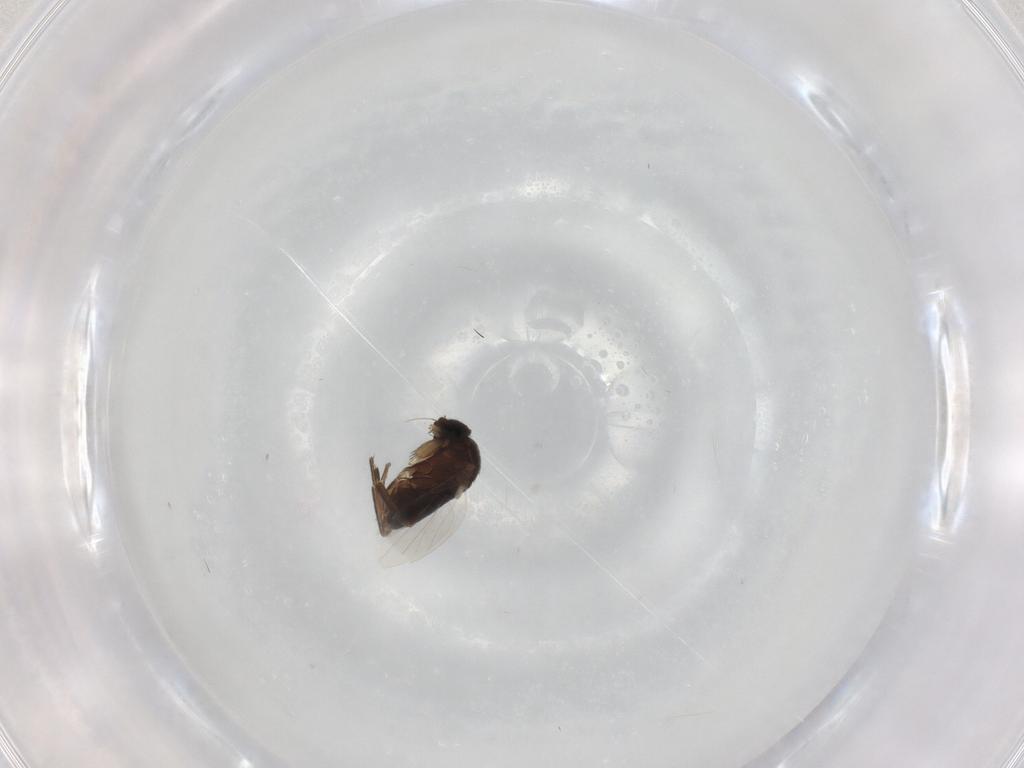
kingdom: Animalia
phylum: Arthropoda
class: Insecta
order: Diptera
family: Phoridae
